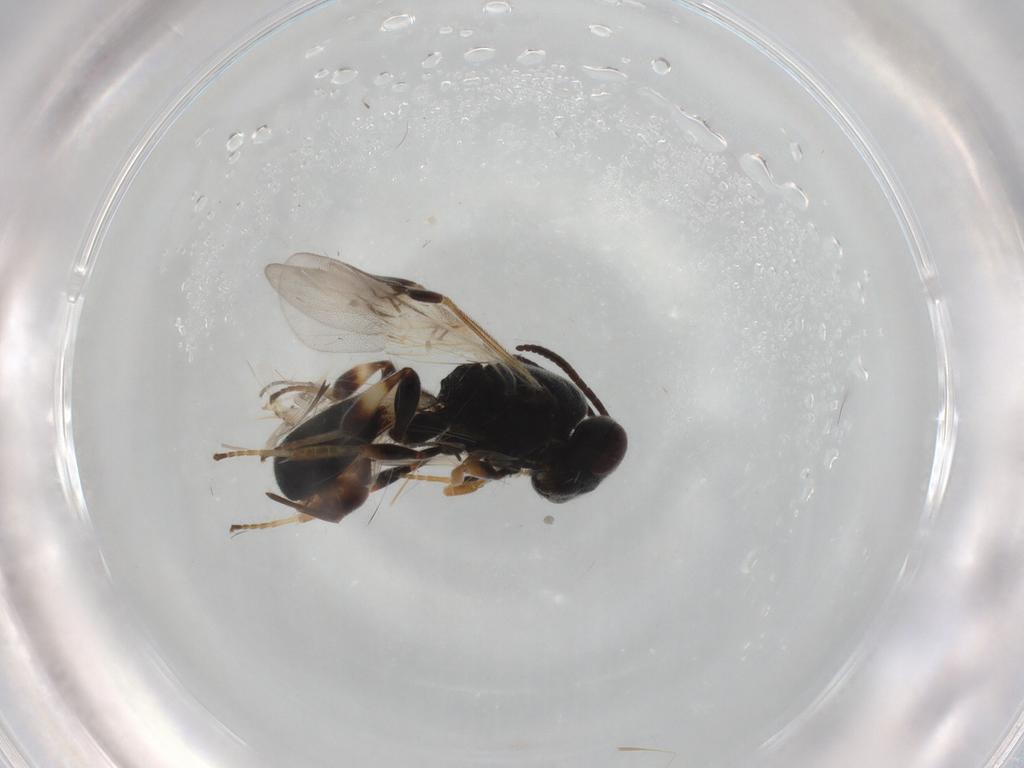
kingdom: Animalia
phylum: Arthropoda
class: Insecta
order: Hymenoptera
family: Braconidae
